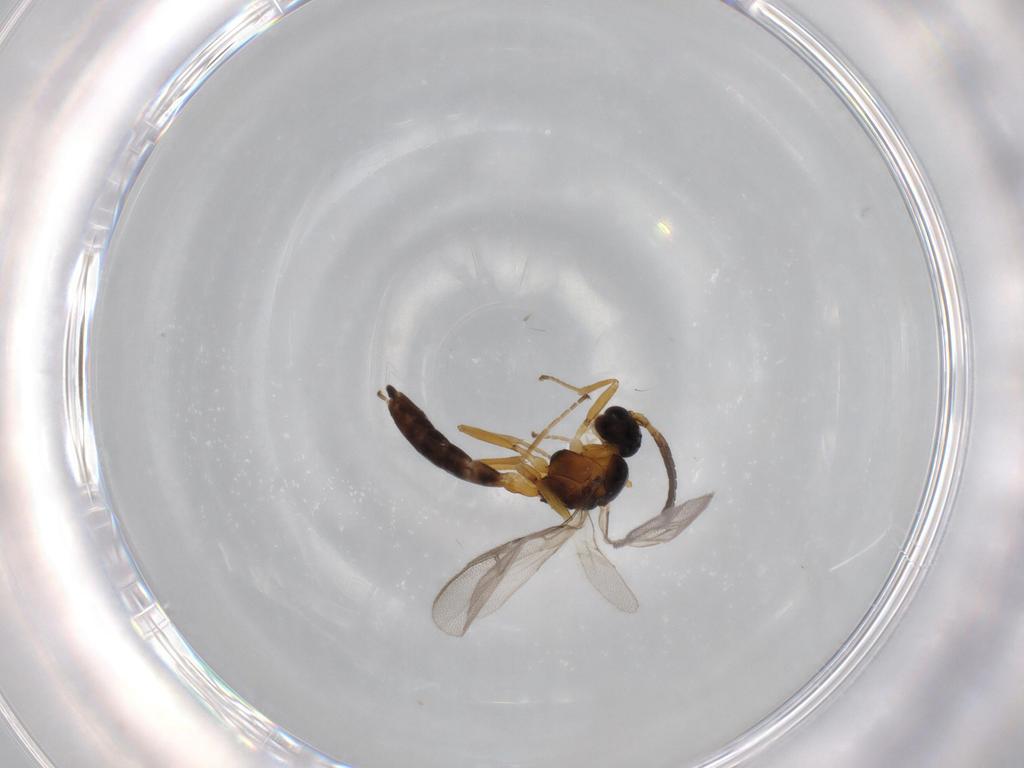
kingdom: Animalia
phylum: Arthropoda
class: Insecta
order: Hymenoptera
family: Braconidae
